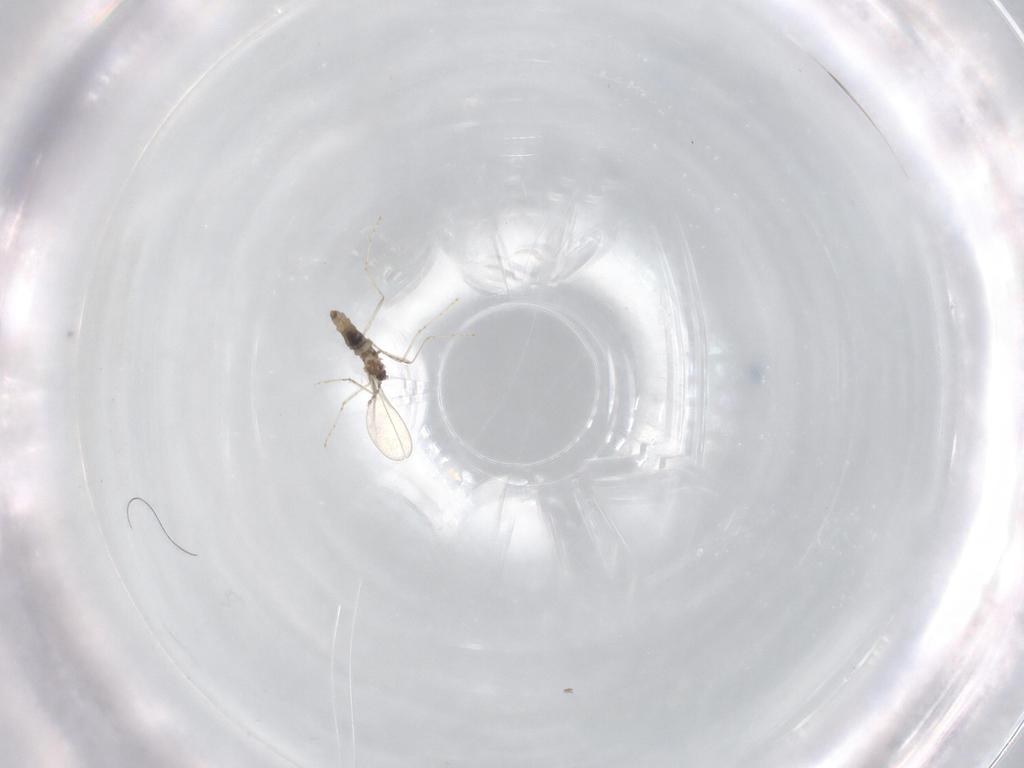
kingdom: Animalia
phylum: Arthropoda
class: Insecta
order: Diptera
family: Cecidomyiidae
